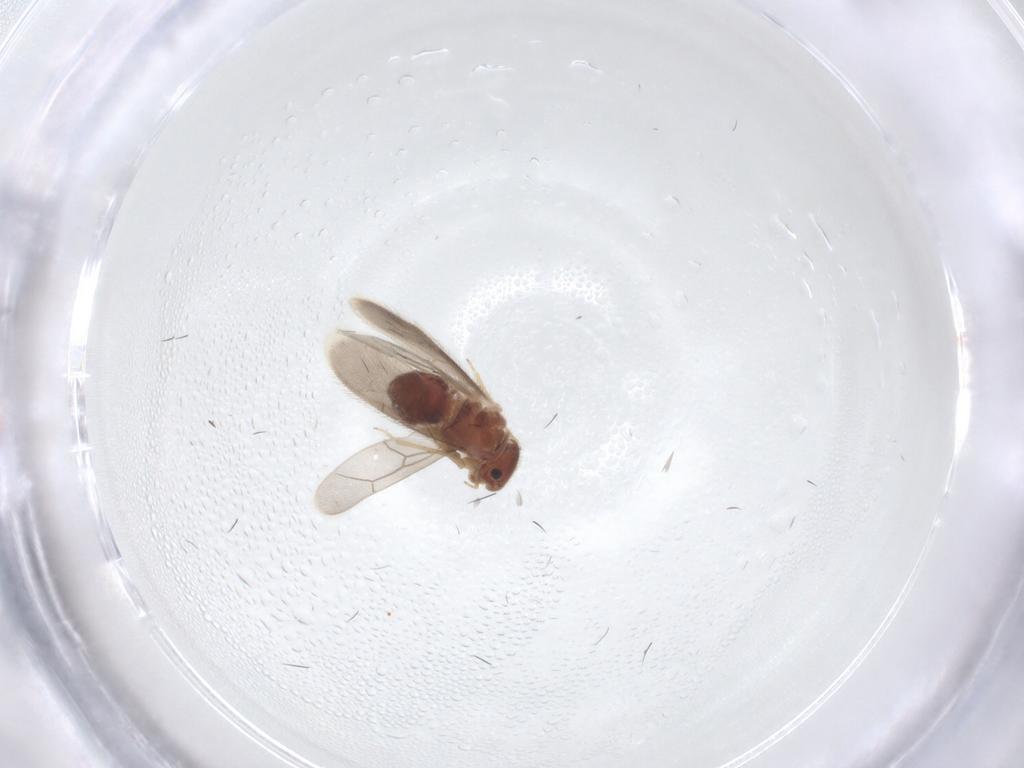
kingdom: Animalia
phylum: Arthropoda
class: Insecta
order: Psocodea
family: Archipsocidae
